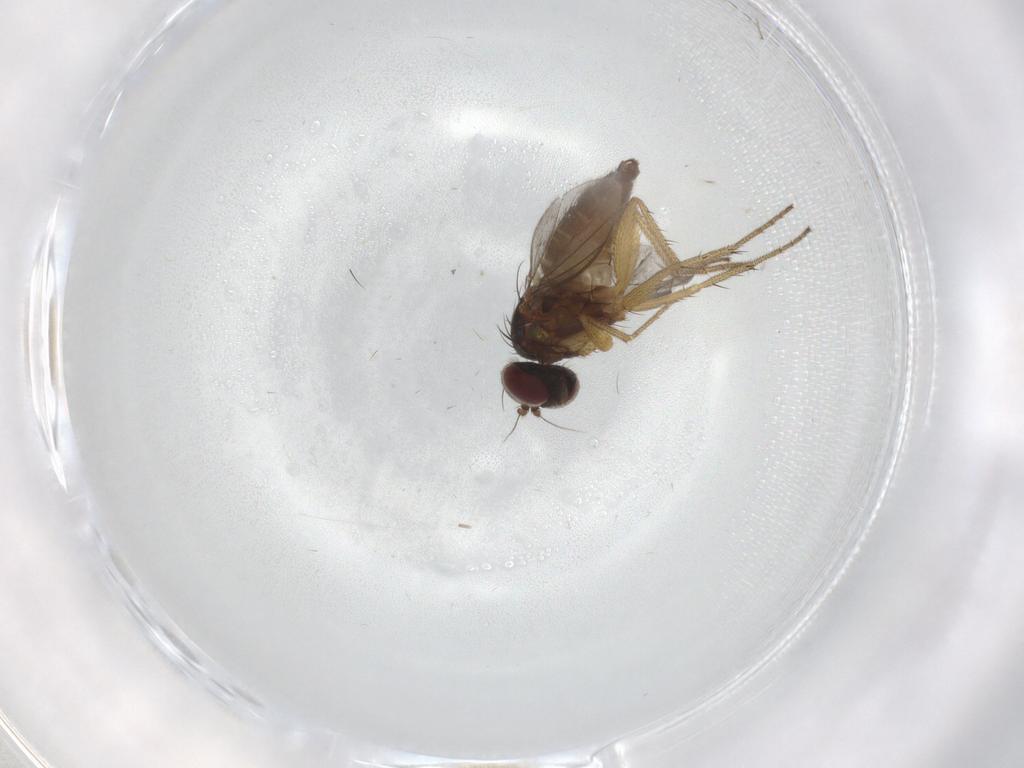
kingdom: Animalia
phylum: Arthropoda
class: Insecta
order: Diptera
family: Dolichopodidae
